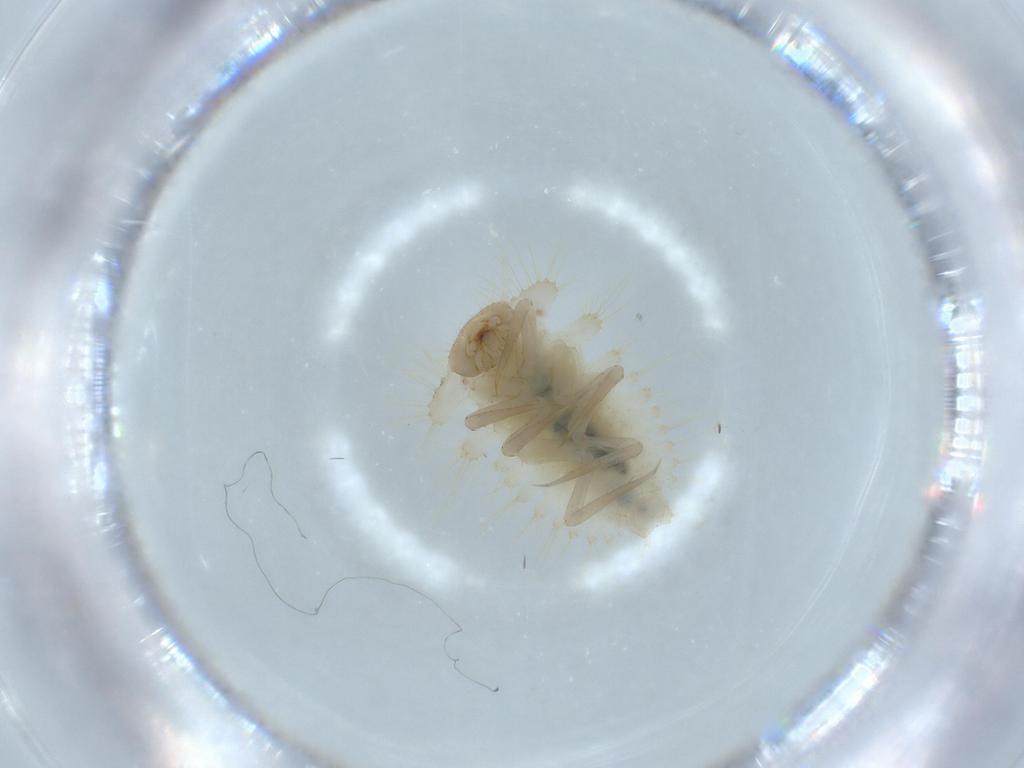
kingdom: Animalia
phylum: Arthropoda
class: Insecta
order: Coleoptera
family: Anamorphidae
